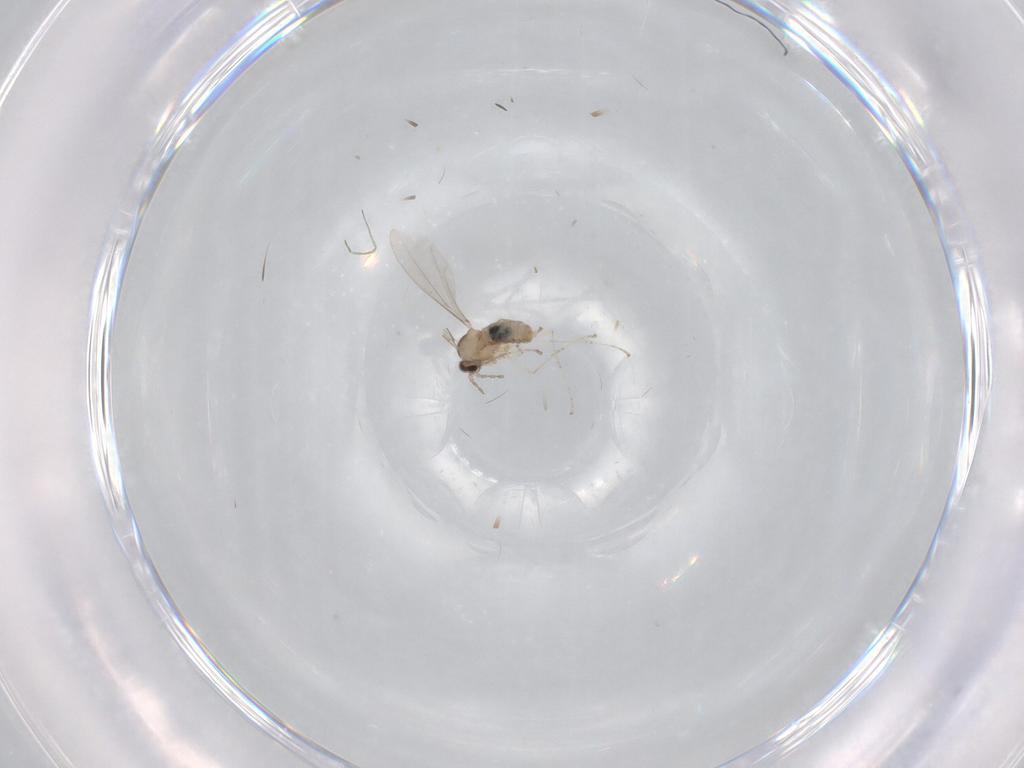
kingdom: Animalia
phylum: Arthropoda
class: Insecta
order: Diptera
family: Cecidomyiidae
